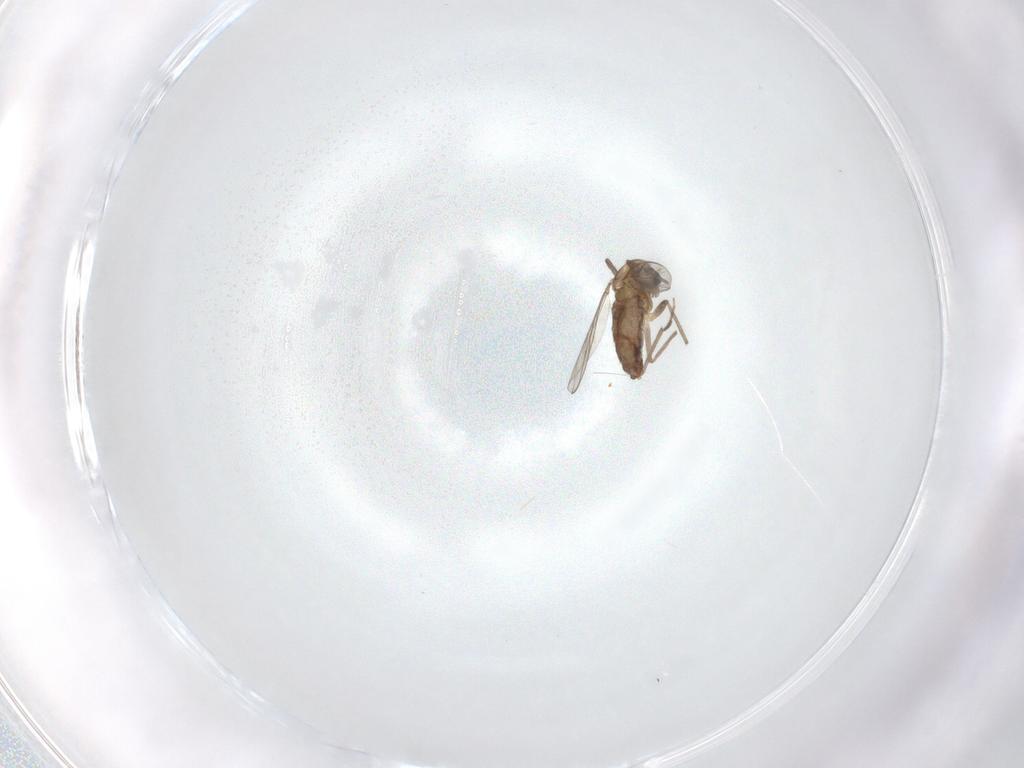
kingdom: Animalia
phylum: Arthropoda
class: Insecta
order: Diptera
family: Chironomidae
